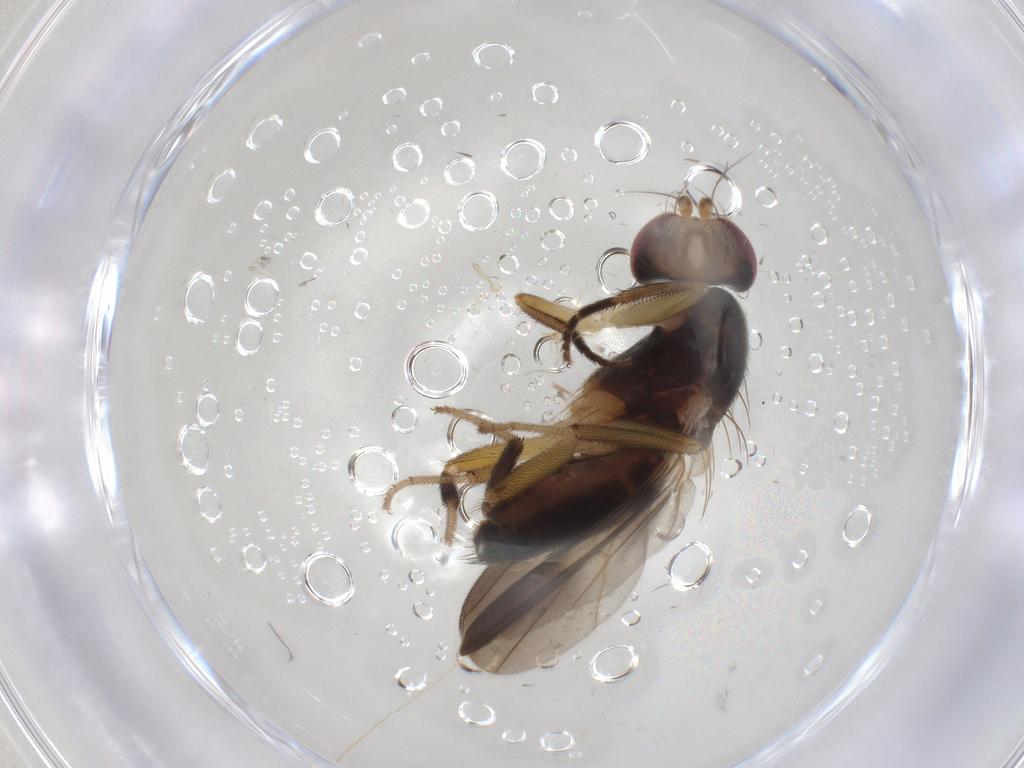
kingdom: Animalia
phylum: Arthropoda
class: Insecta
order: Diptera
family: Clusiidae
